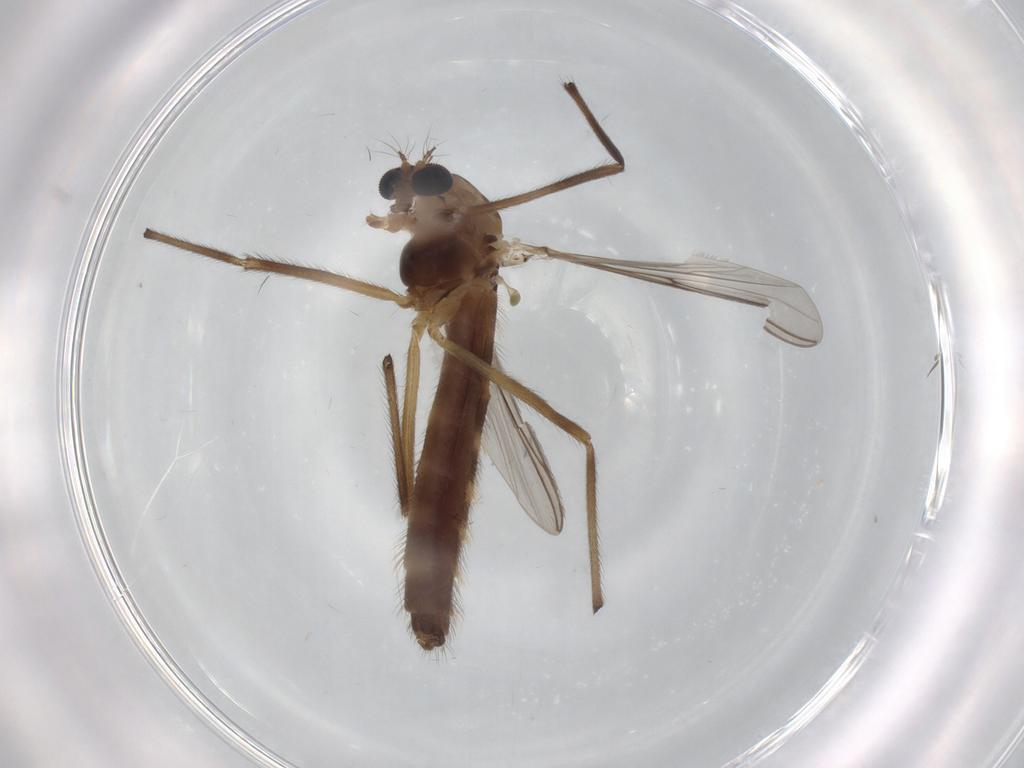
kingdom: Animalia
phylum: Arthropoda
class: Insecta
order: Diptera
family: Chironomidae
